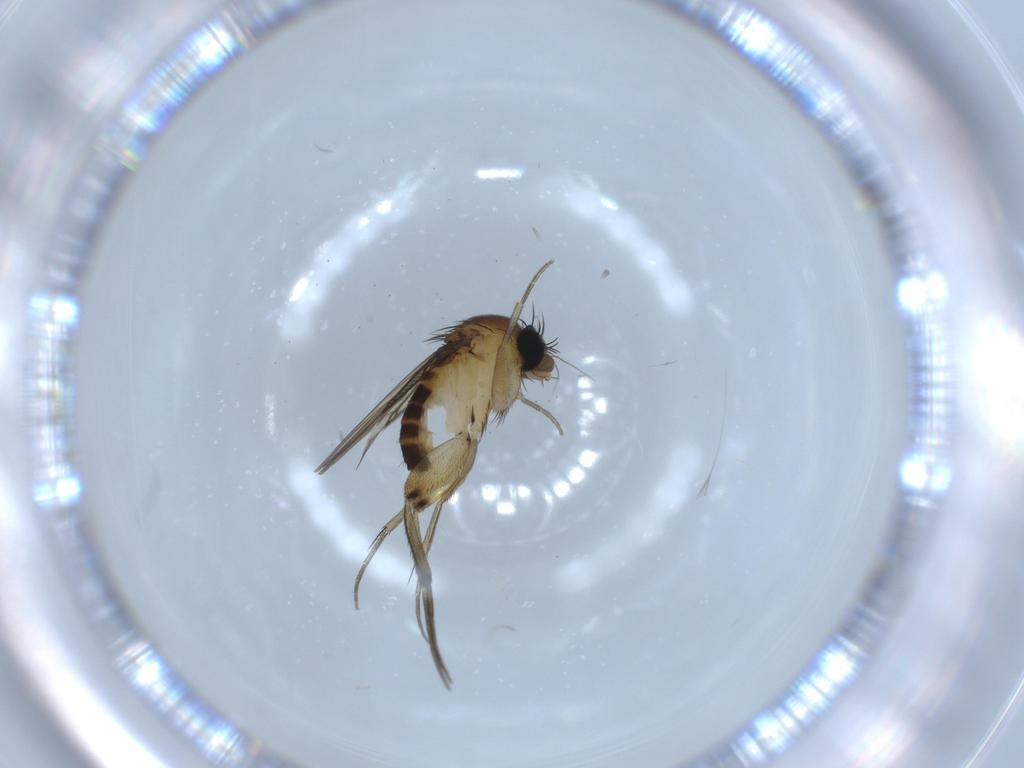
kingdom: Animalia
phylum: Arthropoda
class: Insecta
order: Diptera
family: Phoridae
